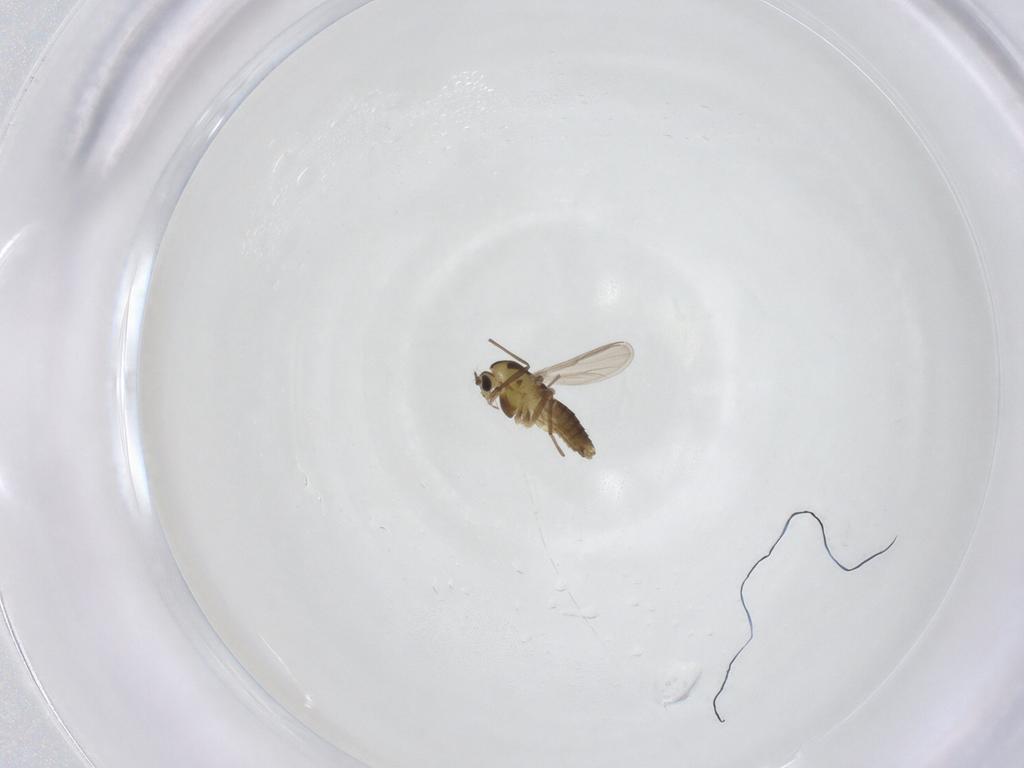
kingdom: Animalia
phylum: Arthropoda
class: Insecta
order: Diptera
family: Chironomidae
